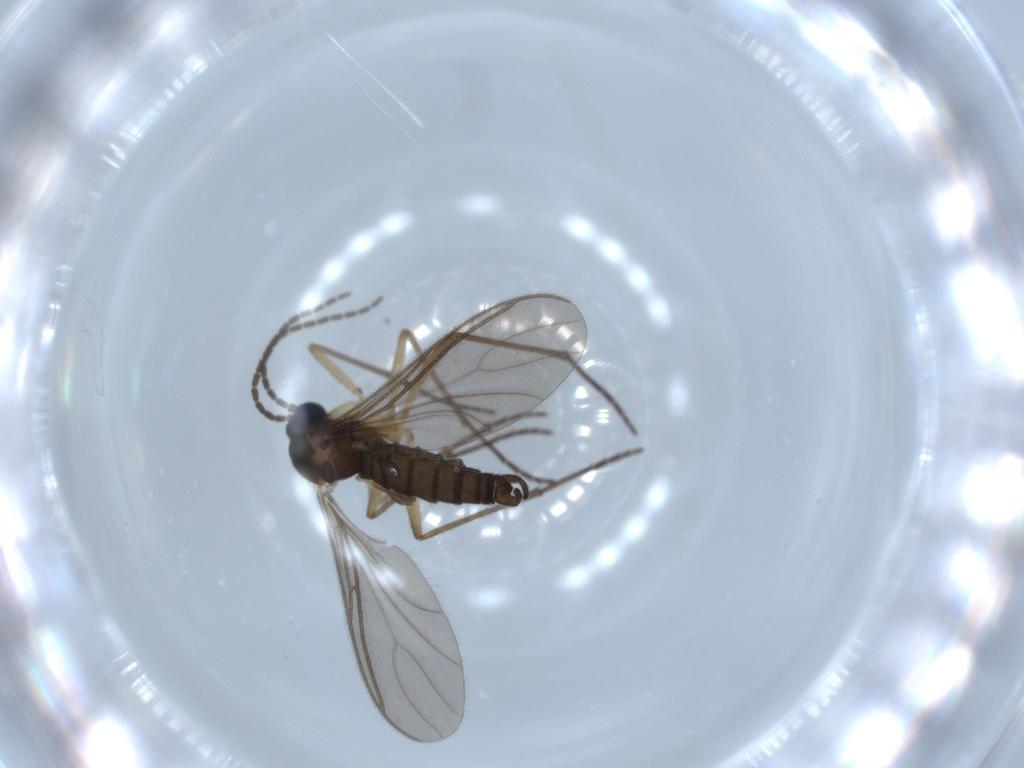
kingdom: Animalia
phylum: Arthropoda
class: Insecta
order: Diptera
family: Sciaridae
